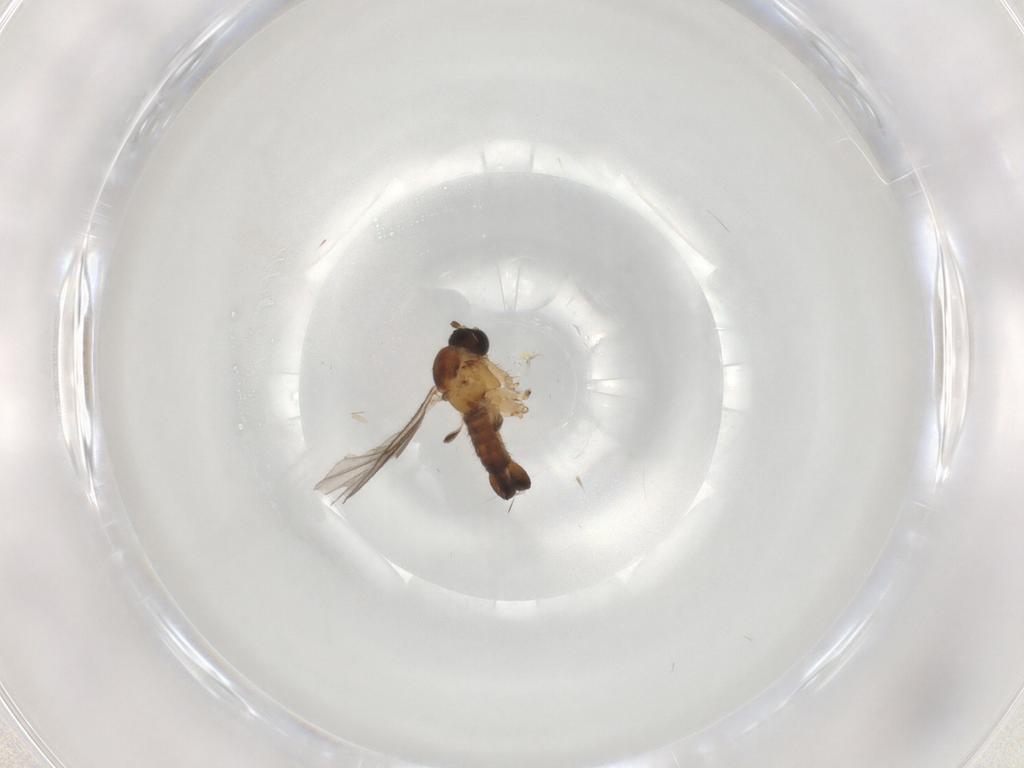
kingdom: Animalia
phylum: Arthropoda
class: Insecta
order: Diptera
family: Sciaridae
